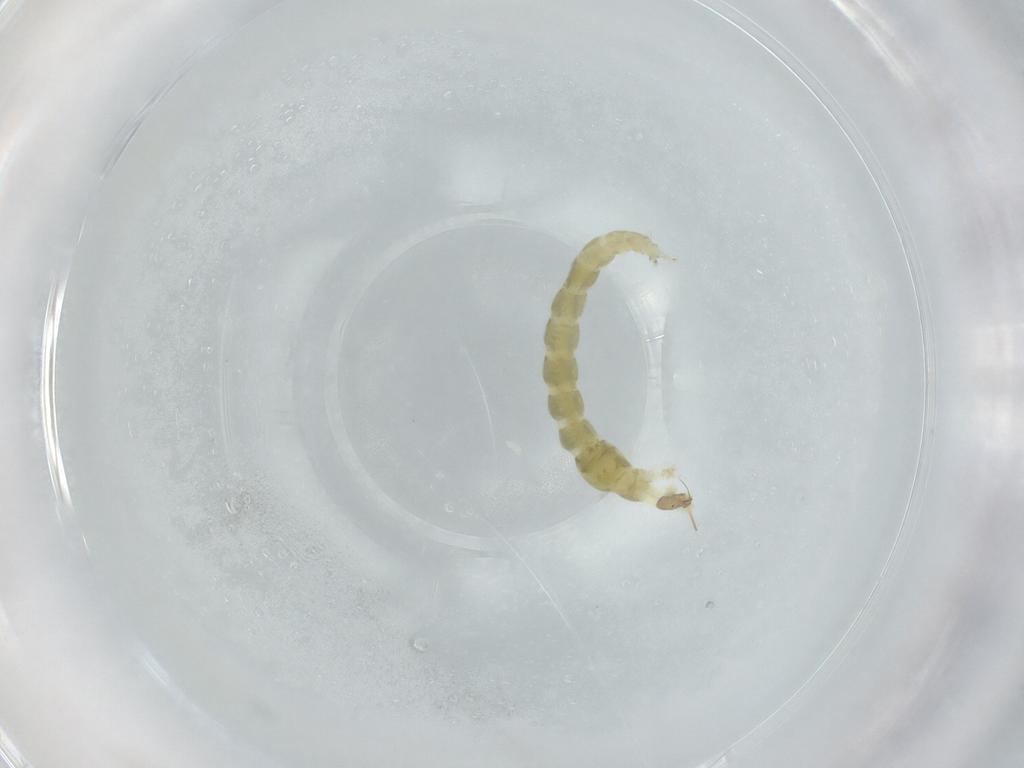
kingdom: Animalia
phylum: Arthropoda
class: Insecta
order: Diptera
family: Chironomidae
